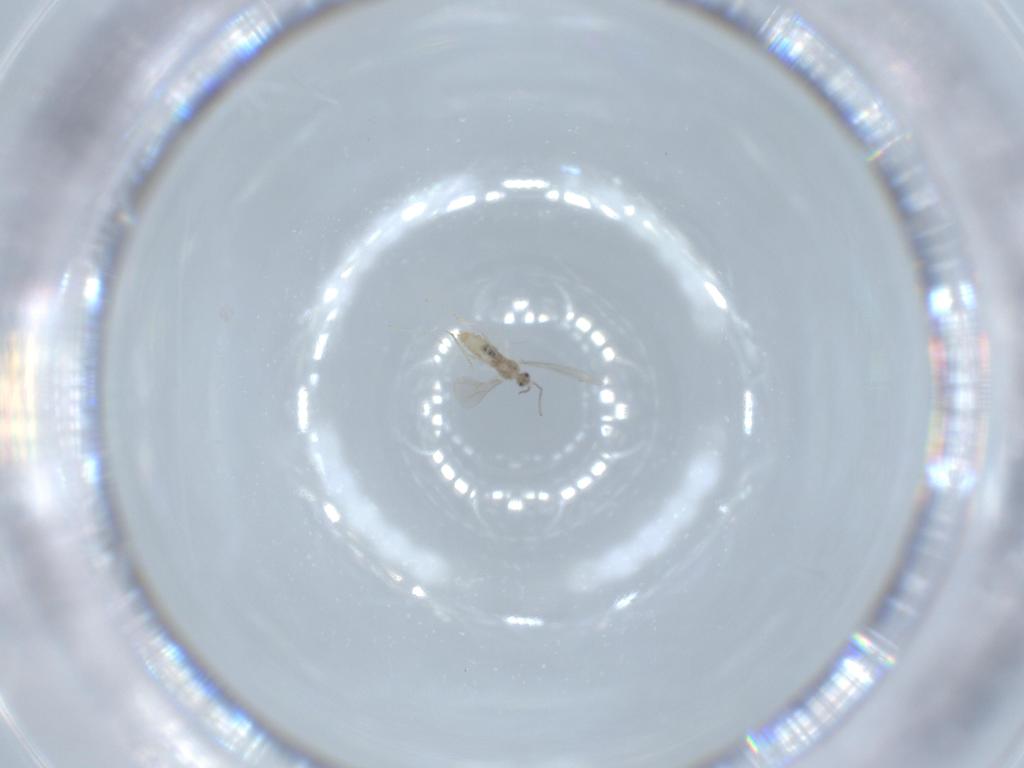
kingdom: Animalia
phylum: Arthropoda
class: Insecta
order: Diptera
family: Cecidomyiidae
